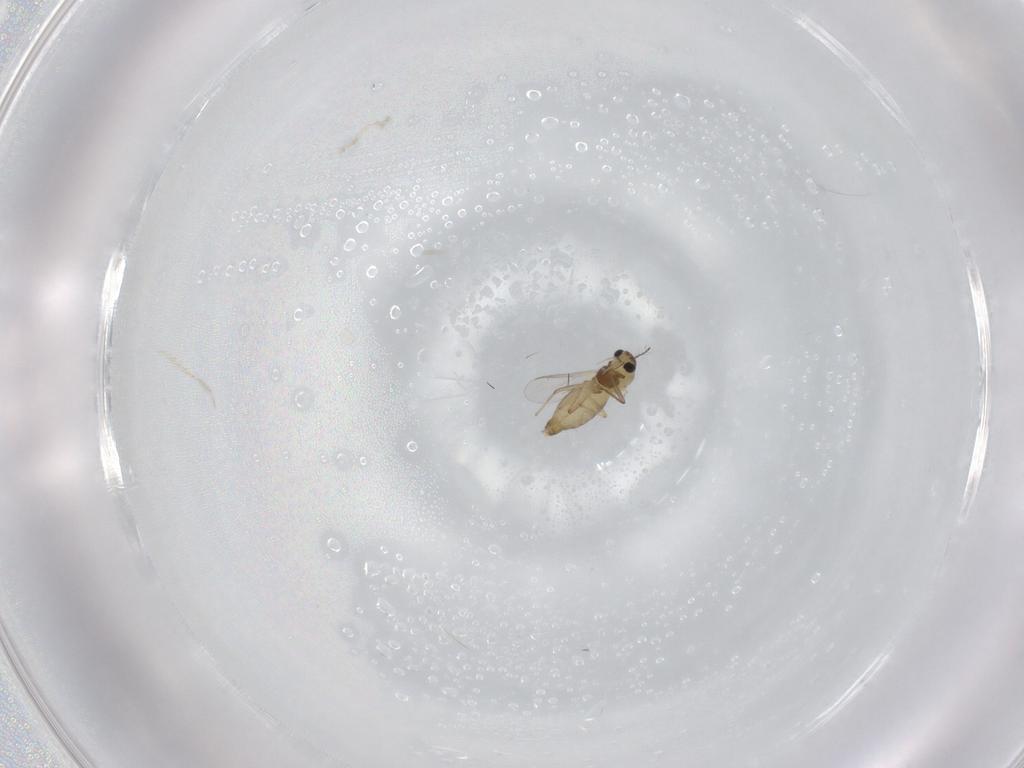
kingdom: Animalia
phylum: Arthropoda
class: Insecta
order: Diptera
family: Chironomidae
